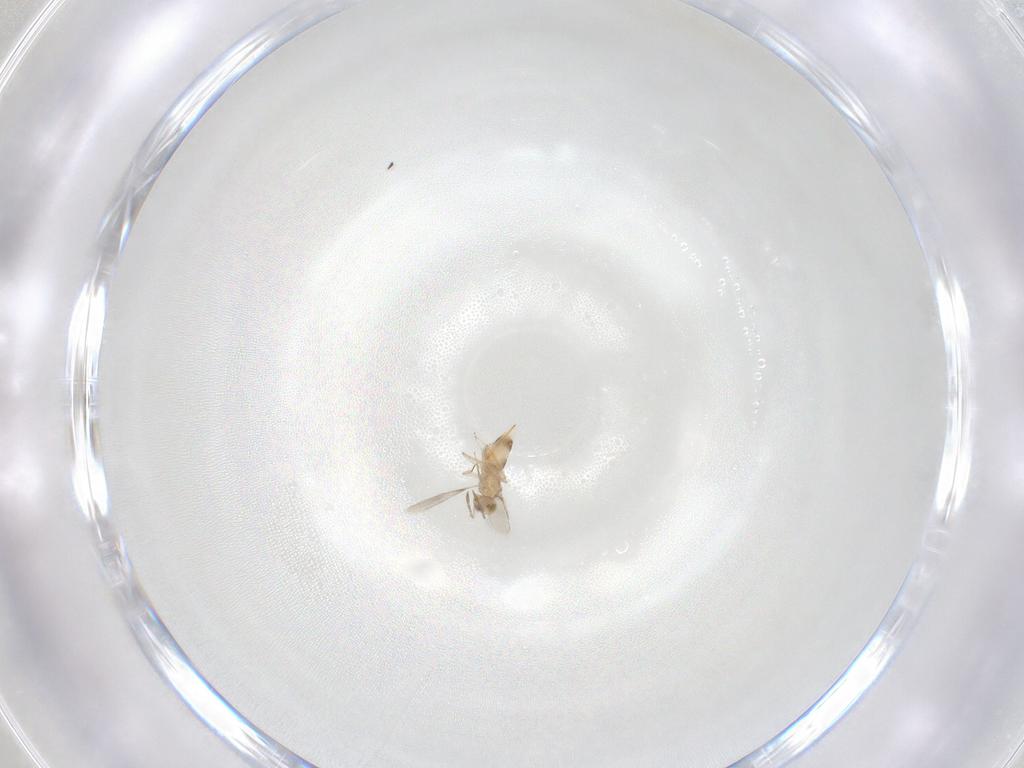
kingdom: Animalia
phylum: Arthropoda
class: Insecta
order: Hymenoptera
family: Aphelinidae
